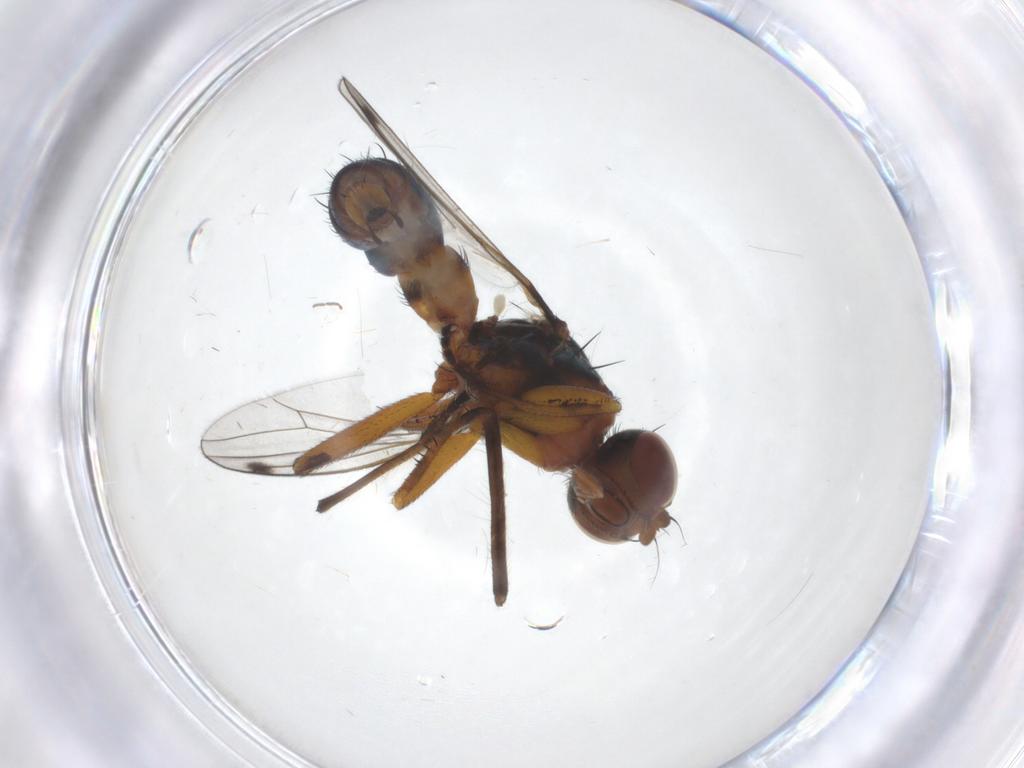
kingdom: Animalia
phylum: Arthropoda
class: Insecta
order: Diptera
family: Sepsidae
